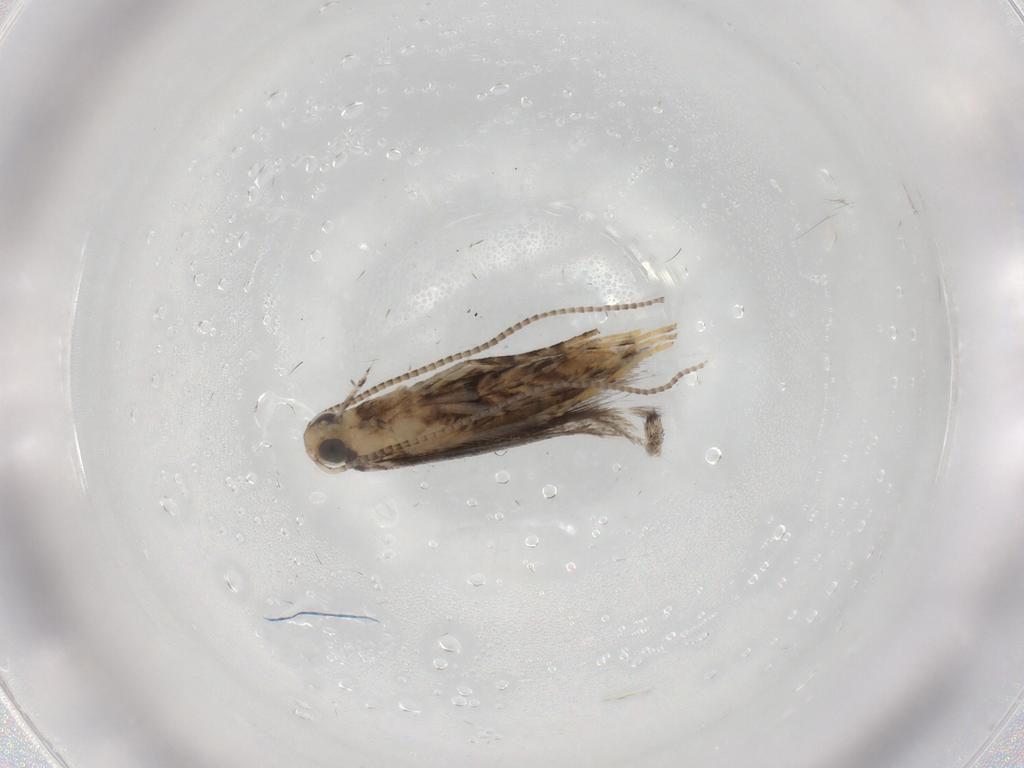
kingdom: Animalia
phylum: Arthropoda
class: Insecta
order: Lepidoptera
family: Gracillariidae
